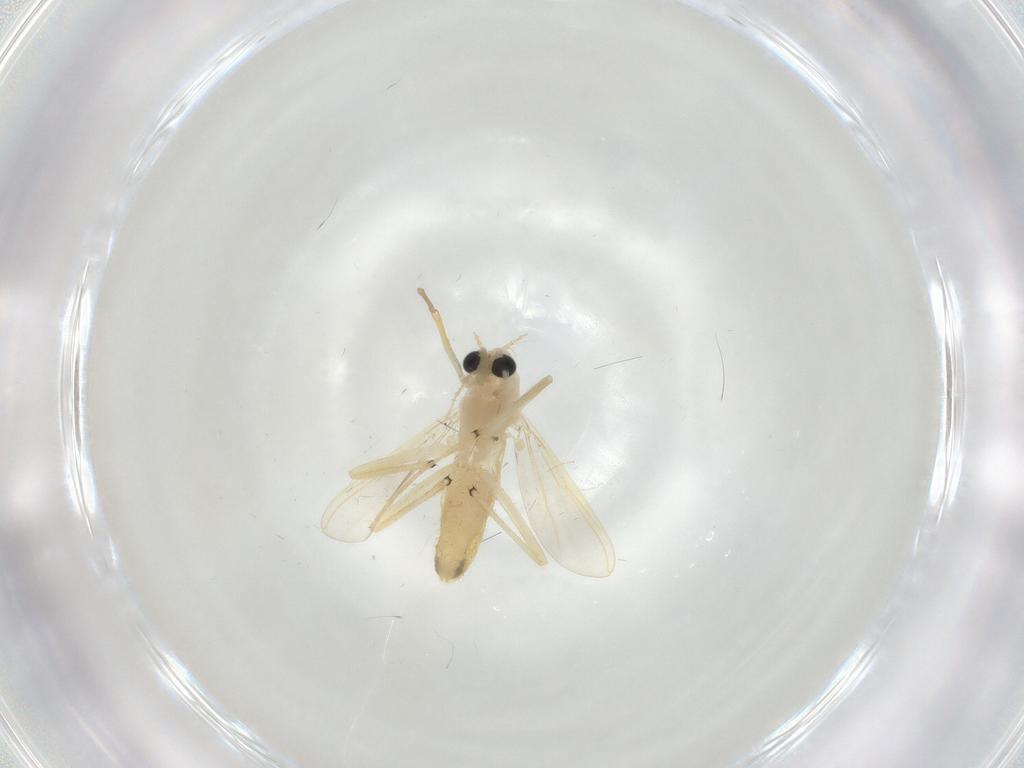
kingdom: Animalia
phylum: Arthropoda
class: Insecta
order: Diptera
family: Chironomidae
